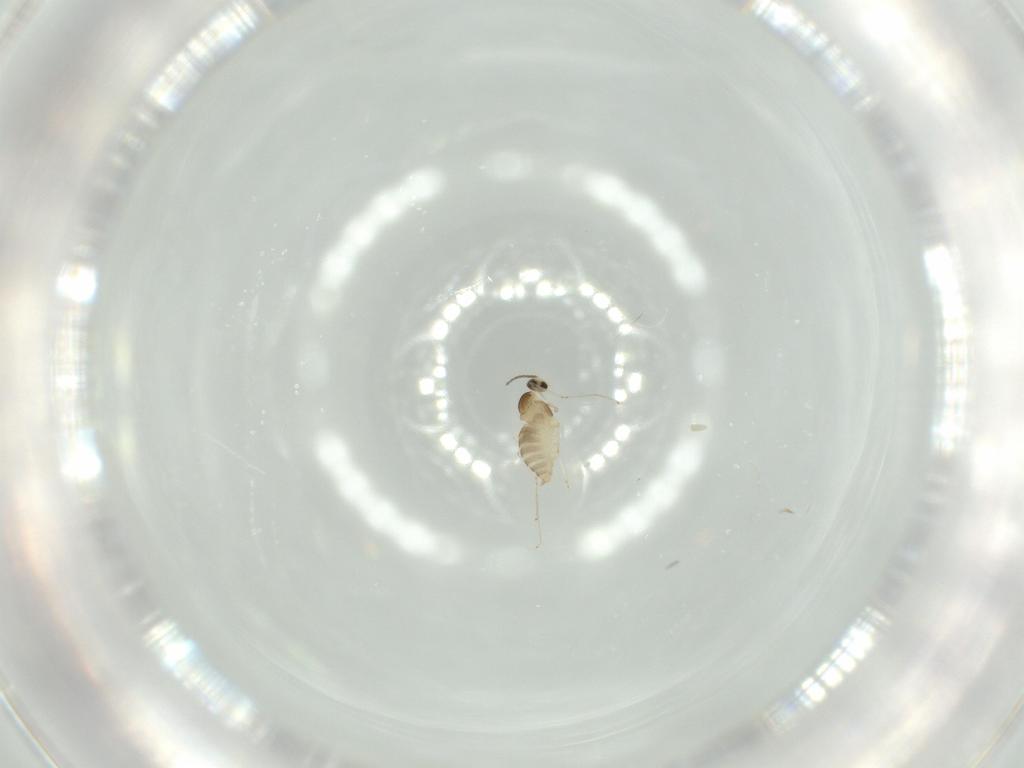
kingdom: Animalia
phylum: Arthropoda
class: Insecta
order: Diptera
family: Cecidomyiidae
